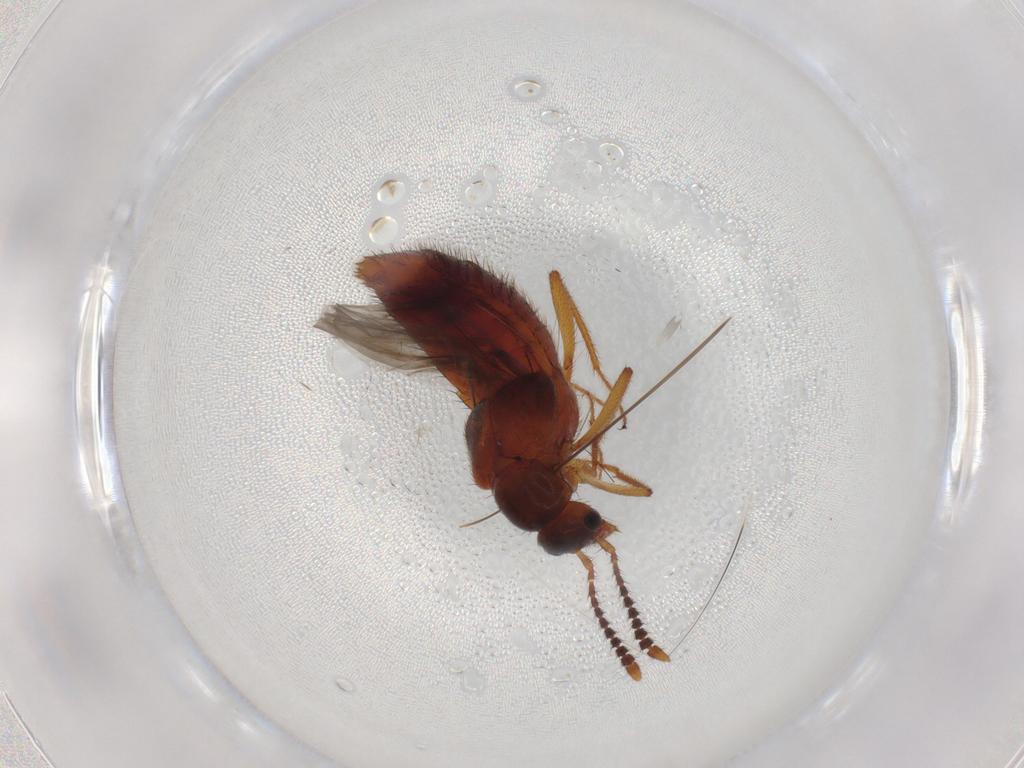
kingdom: Animalia
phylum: Arthropoda
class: Insecta
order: Coleoptera
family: Staphylinidae
